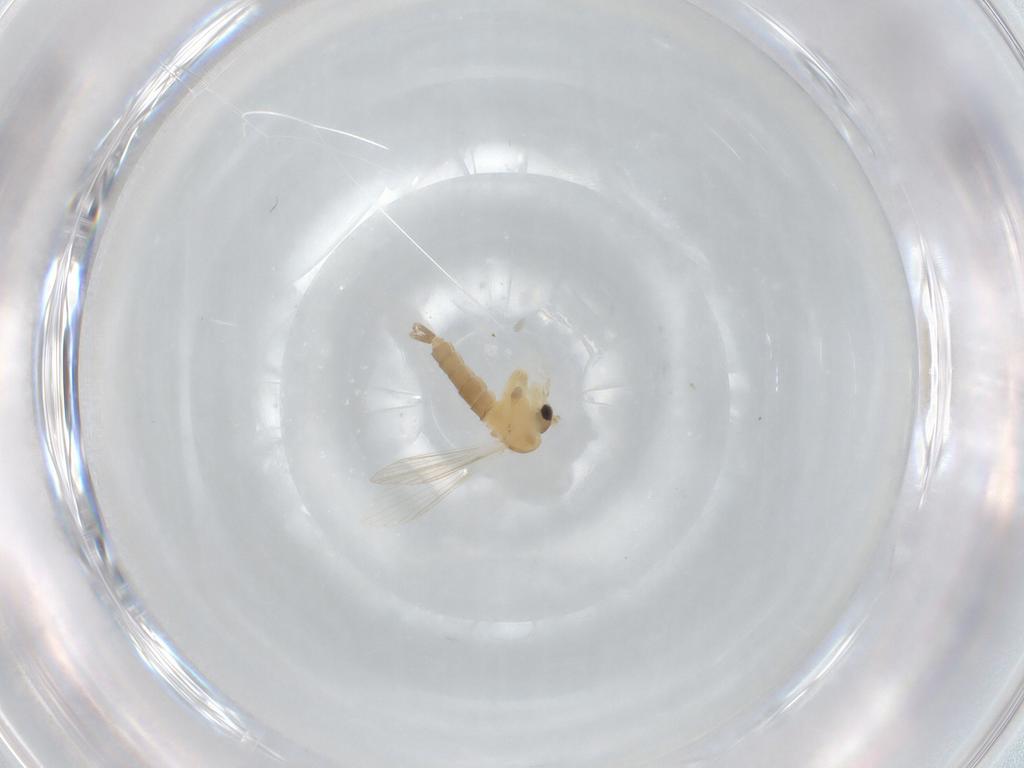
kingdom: Animalia
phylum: Arthropoda
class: Insecta
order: Diptera
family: Psychodidae
